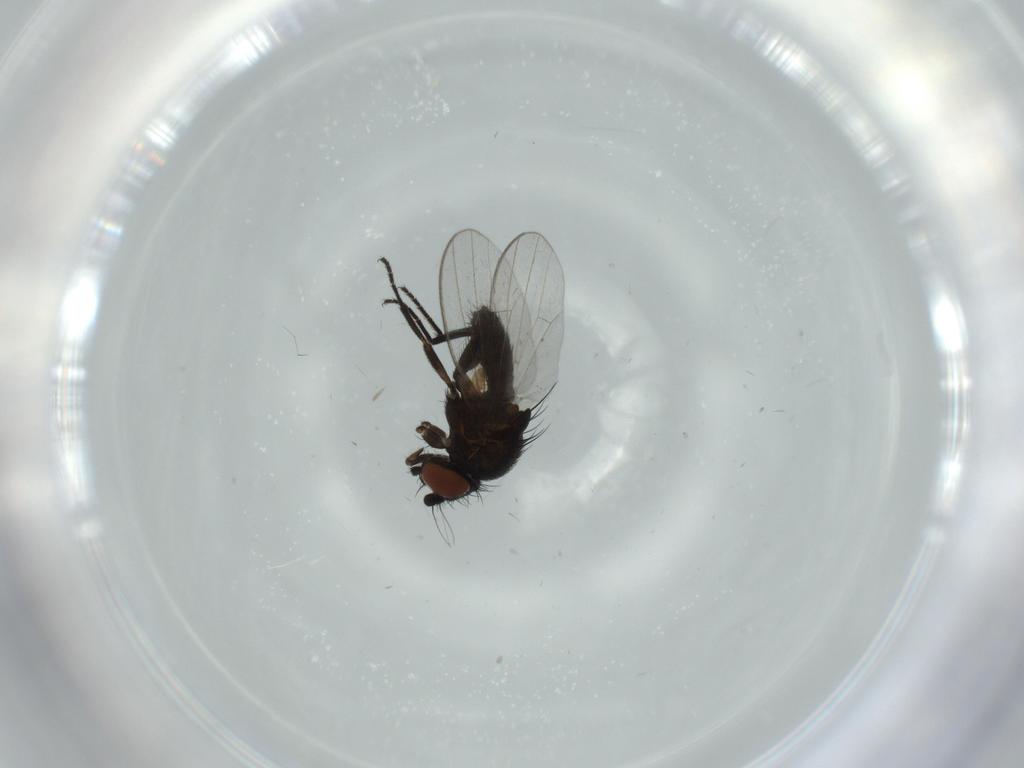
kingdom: Animalia
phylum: Arthropoda
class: Insecta
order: Diptera
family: Milichiidae
